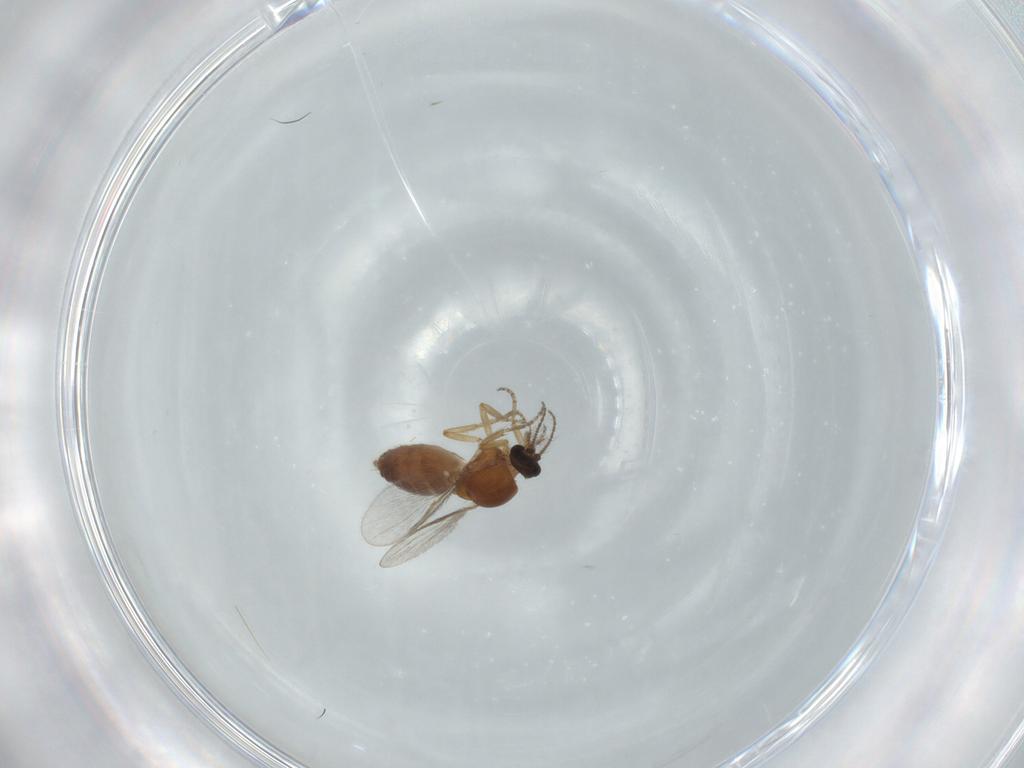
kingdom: Animalia
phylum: Arthropoda
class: Insecta
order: Diptera
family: Ceratopogonidae
